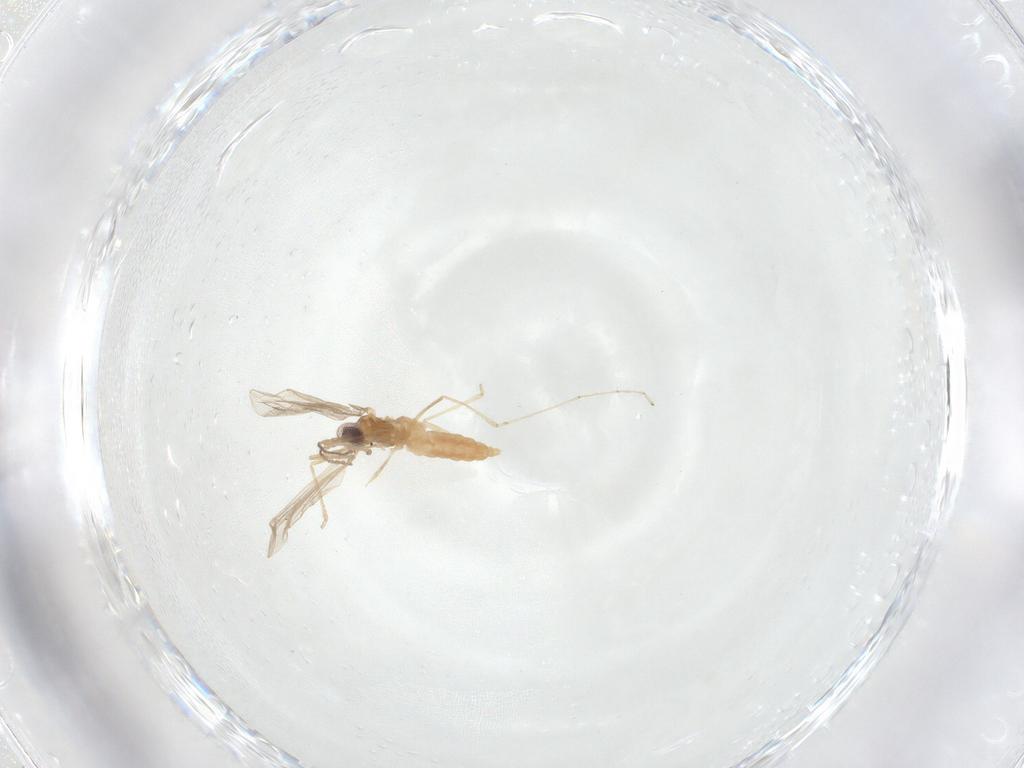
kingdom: Animalia
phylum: Arthropoda
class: Insecta
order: Diptera
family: Cecidomyiidae
